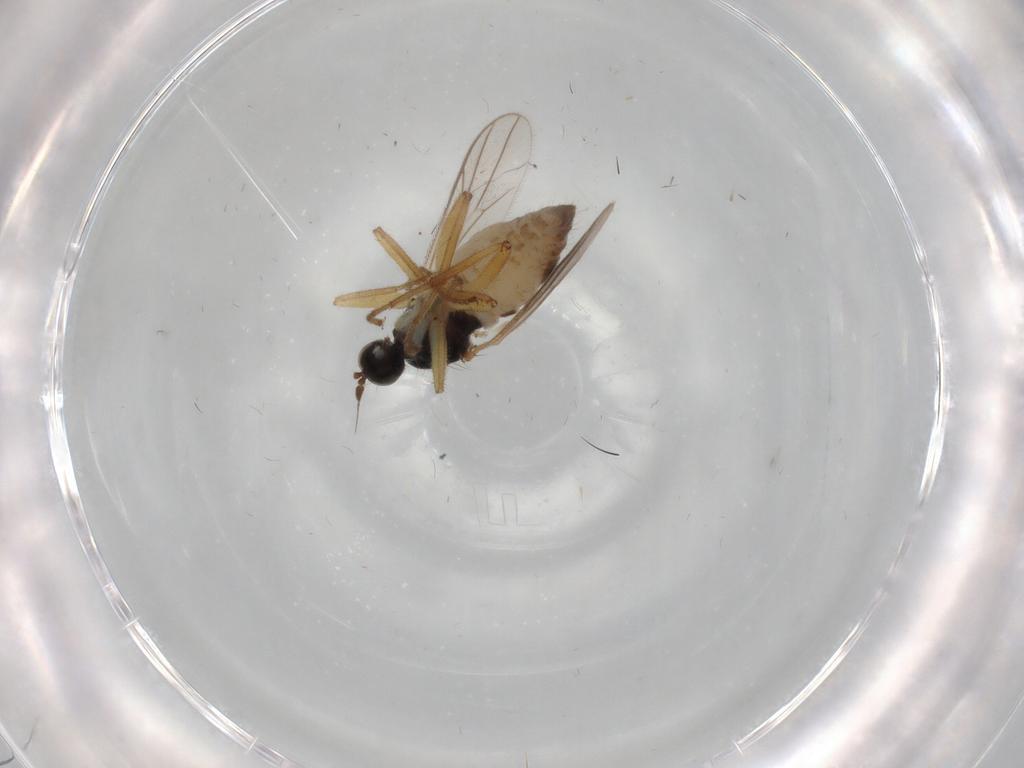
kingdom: Animalia
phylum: Arthropoda
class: Insecta
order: Diptera
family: Hybotidae
